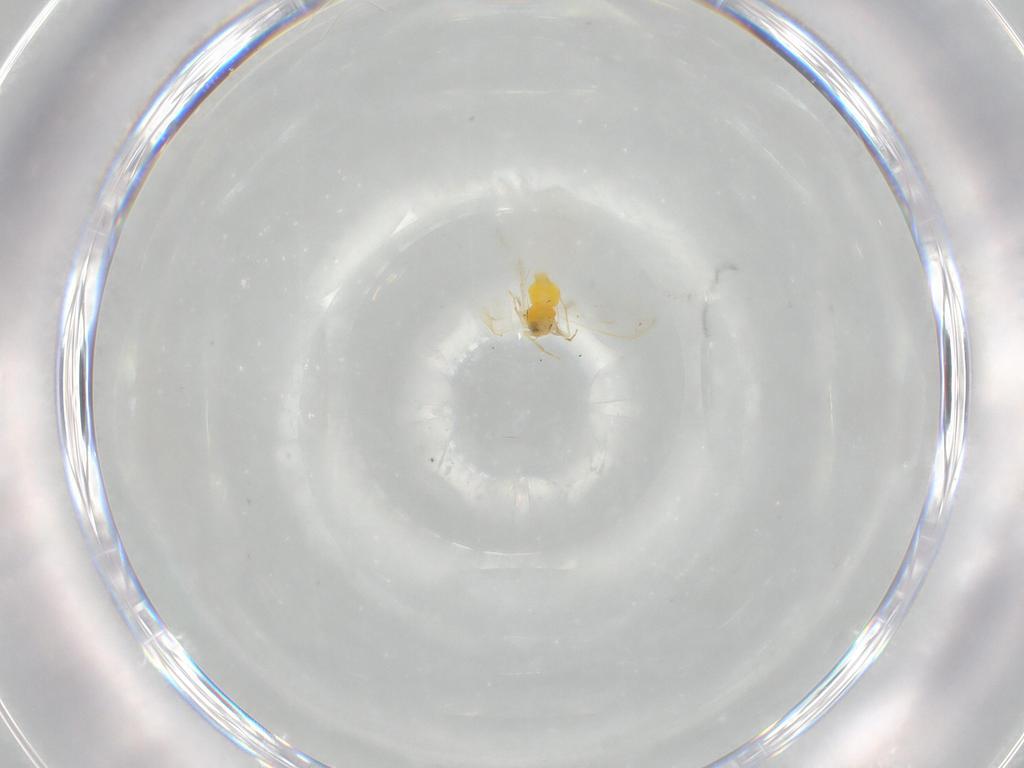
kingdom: Animalia
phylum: Arthropoda
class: Insecta
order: Hemiptera
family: Aleyrodidae
